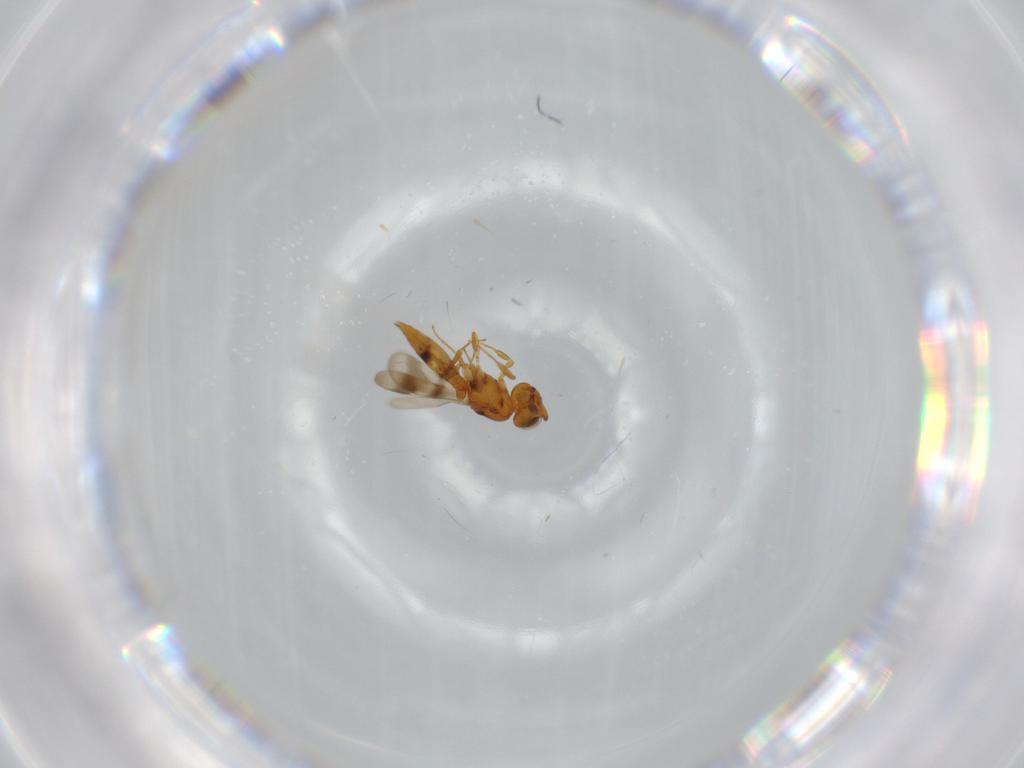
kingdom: Animalia
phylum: Arthropoda
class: Insecta
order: Hymenoptera
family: Scelionidae
